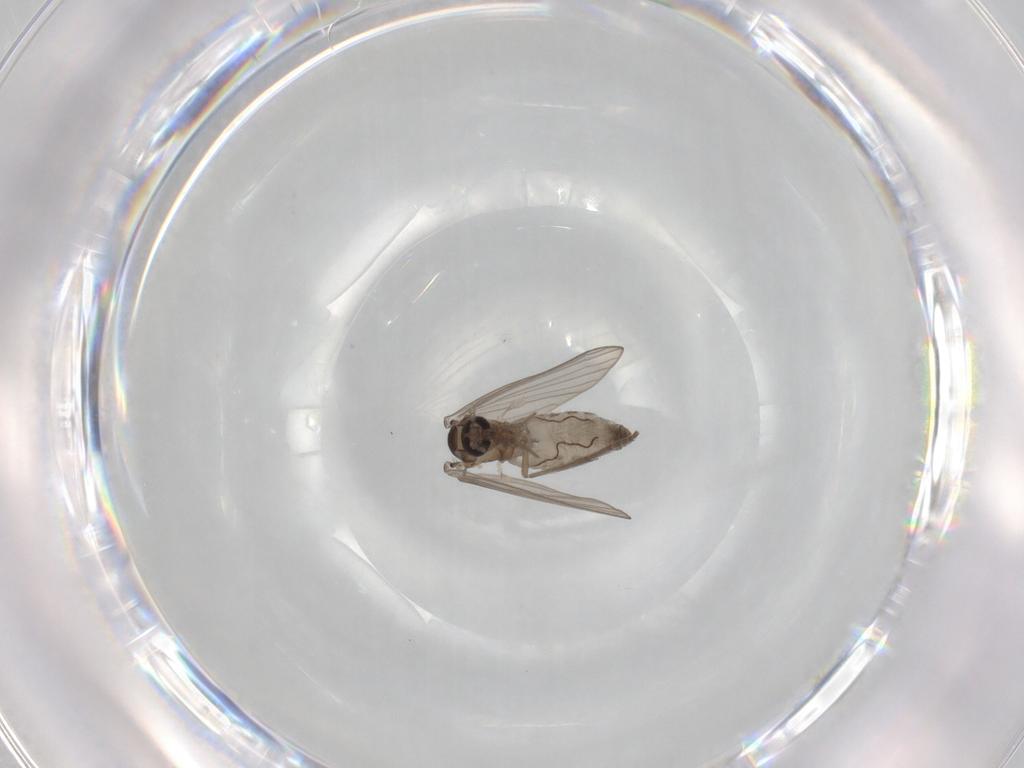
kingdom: Animalia
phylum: Arthropoda
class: Insecta
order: Diptera
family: Psychodidae
